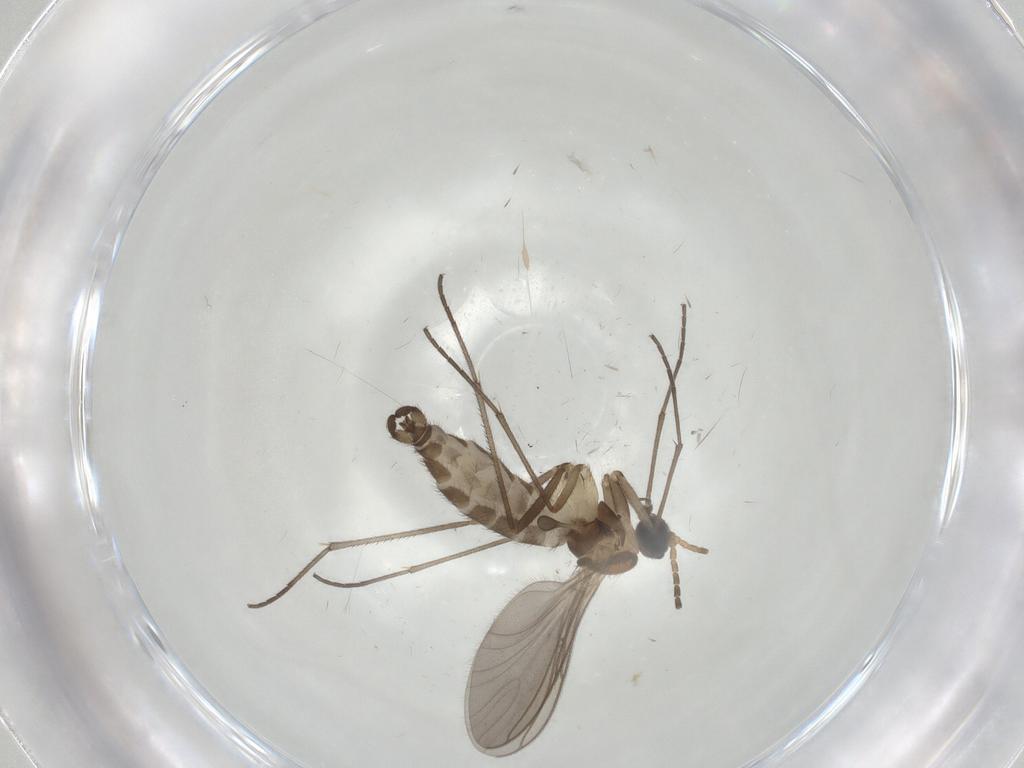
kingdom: Animalia
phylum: Arthropoda
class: Insecta
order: Diptera
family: Sciaridae
